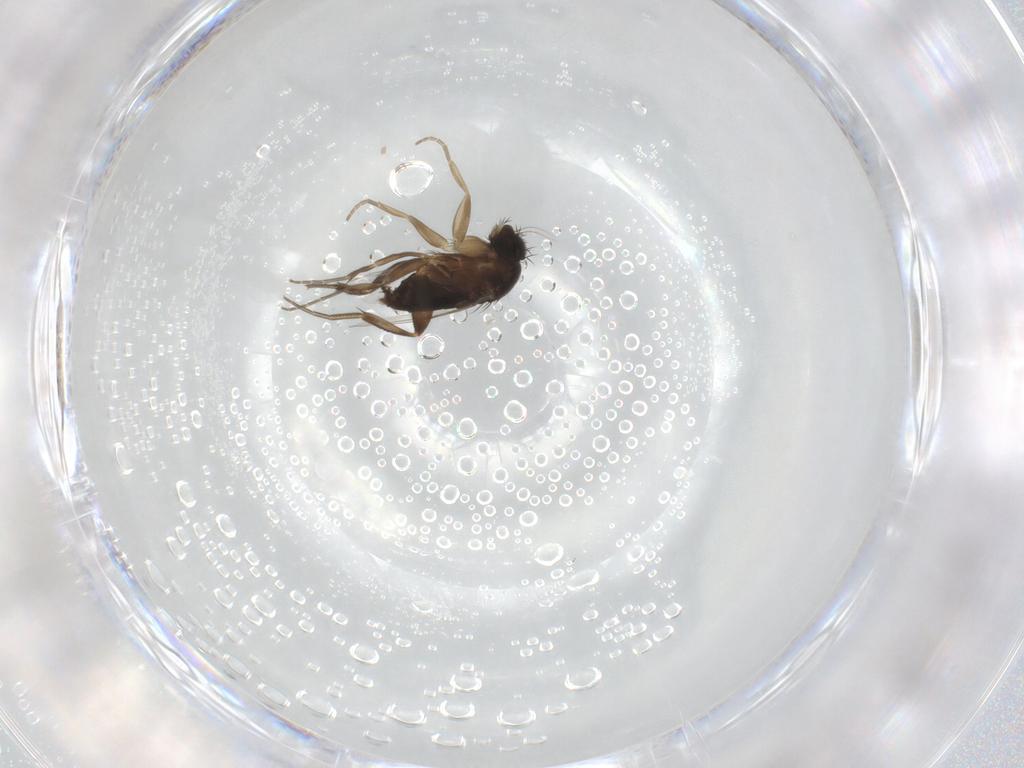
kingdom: Animalia
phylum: Arthropoda
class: Insecta
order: Diptera
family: Phoridae
